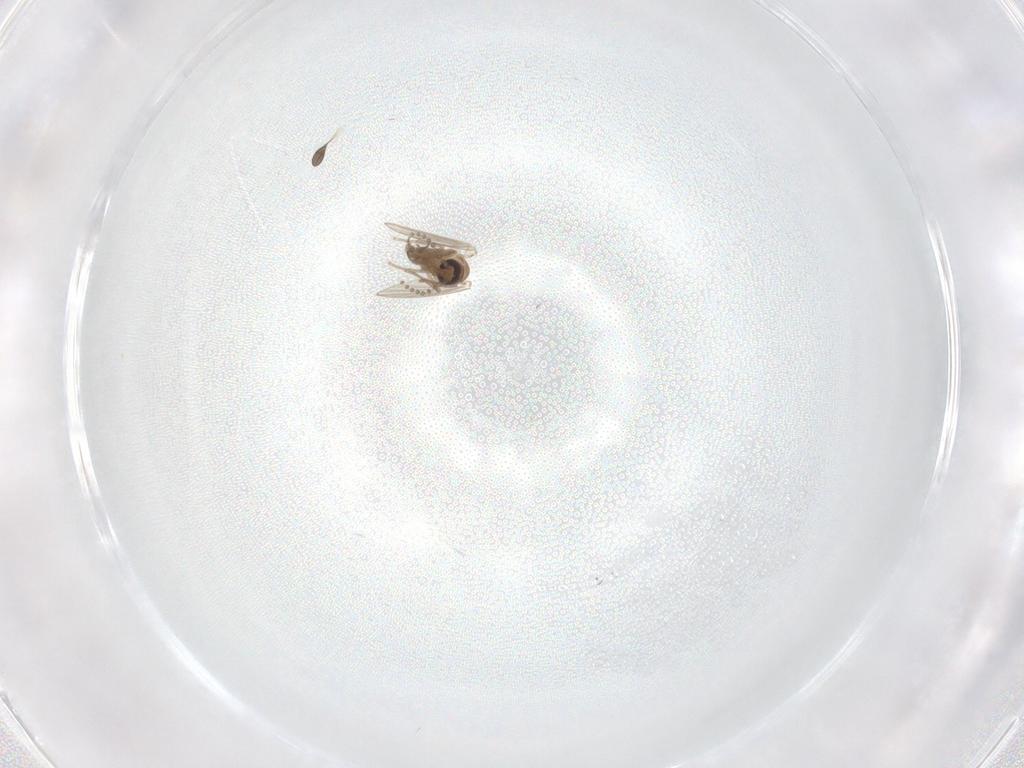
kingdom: Animalia
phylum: Arthropoda
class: Insecta
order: Diptera
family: Psychodidae
